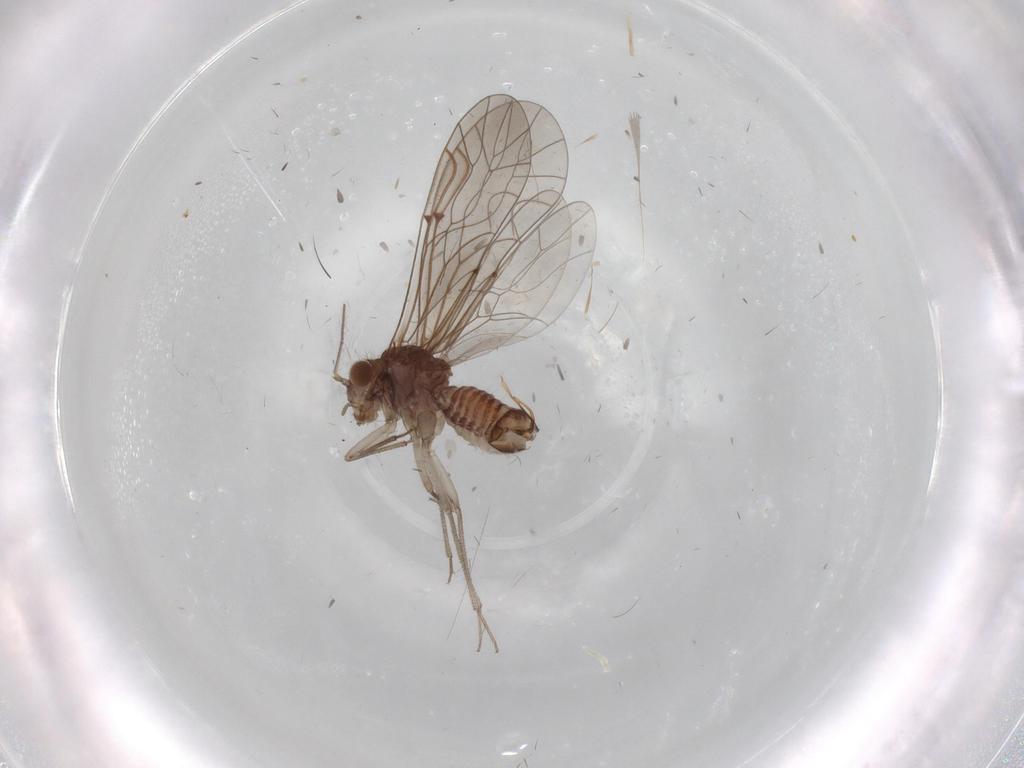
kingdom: Animalia
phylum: Arthropoda
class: Insecta
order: Psocodea
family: Lachesillidae
